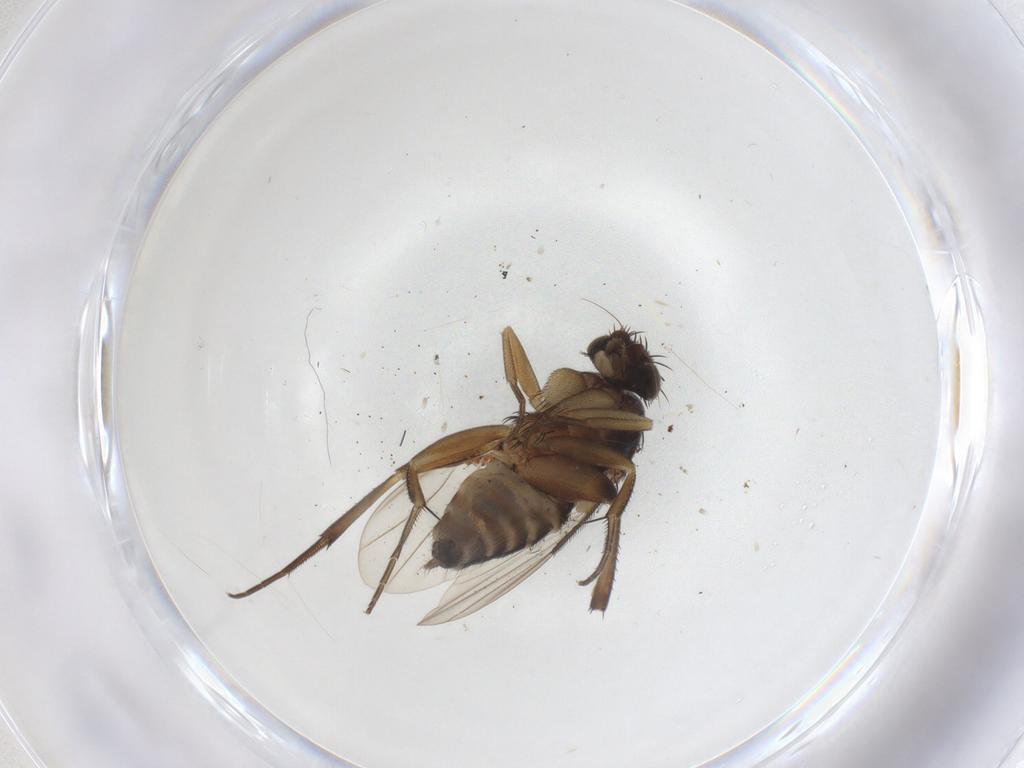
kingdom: Animalia
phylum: Arthropoda
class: Insecta
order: Diptera
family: Phoridae
